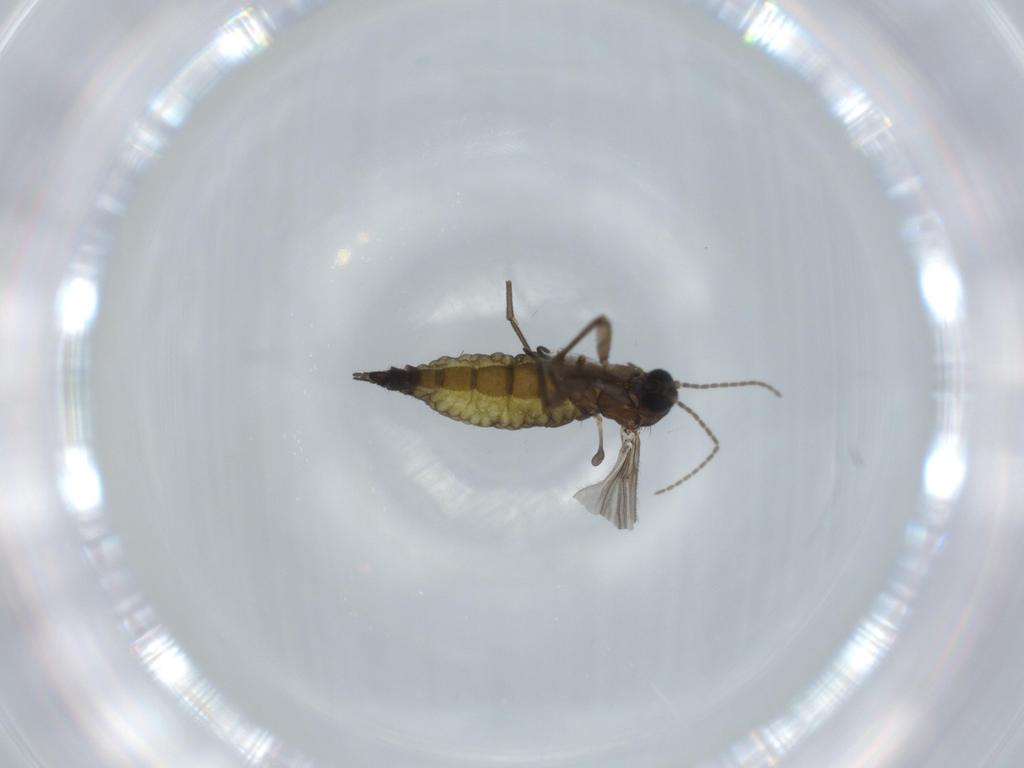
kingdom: Animalia
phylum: Arthropoda
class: Insecta
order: Diptera
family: Sciaridae
